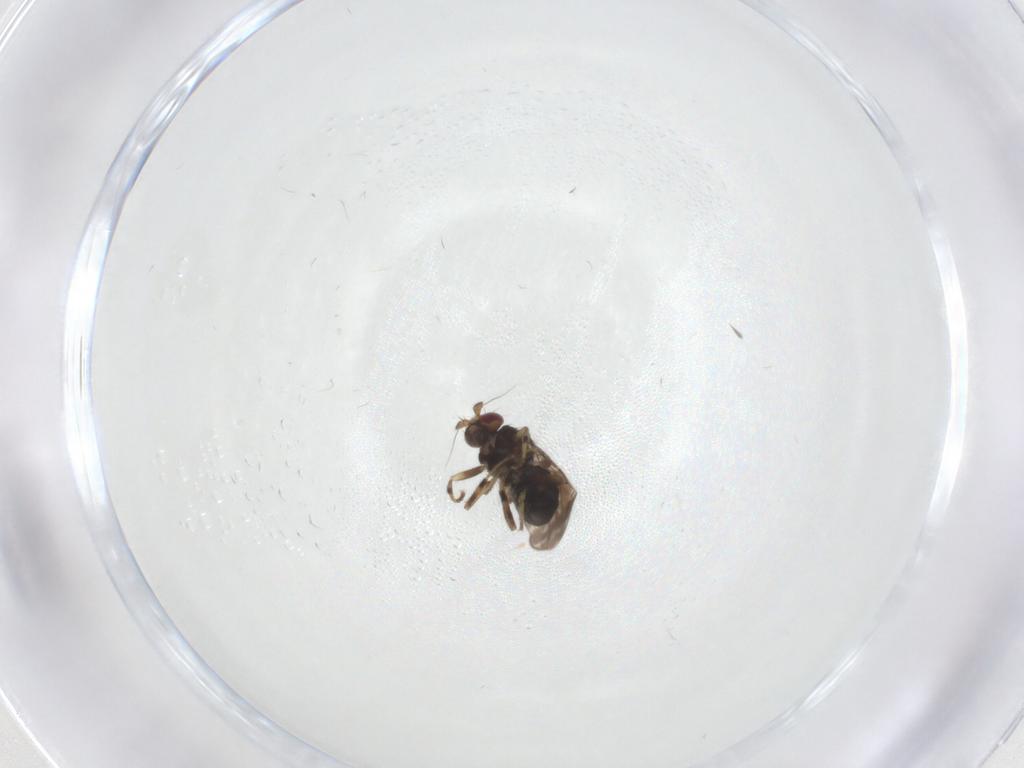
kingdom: Animalia
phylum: Arthropoda
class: Insecta
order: Diptera
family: Sphaeroceridae
